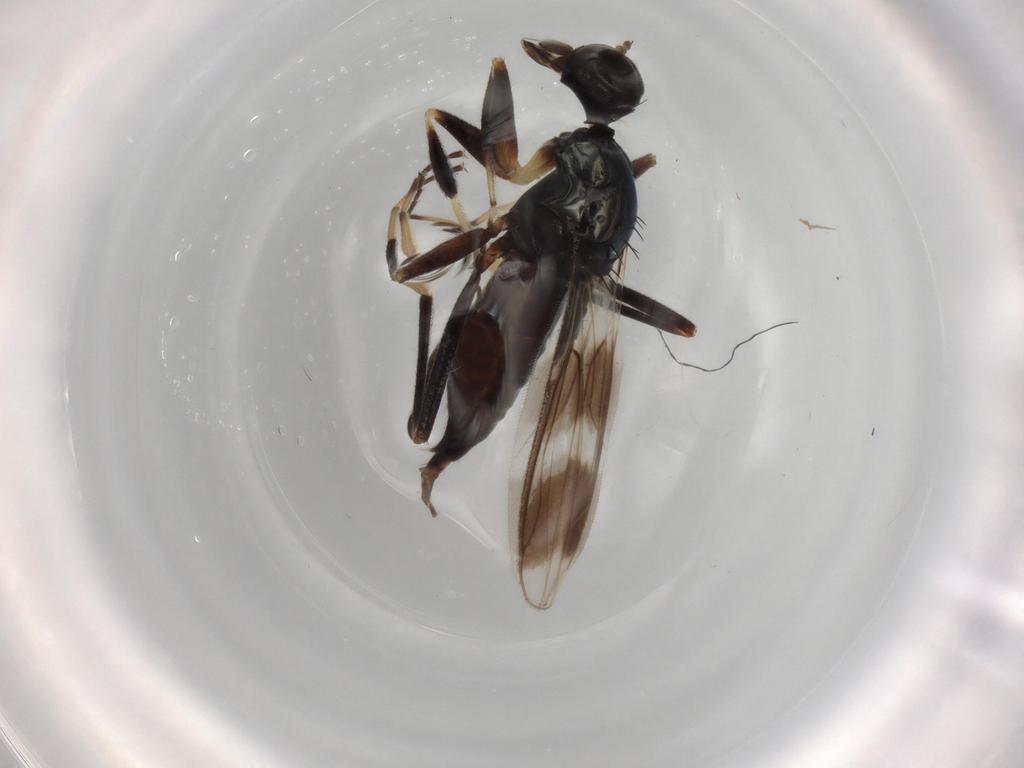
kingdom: Animalia
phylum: Arthropoda
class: Insecta
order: Diptera
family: Hybotidae
